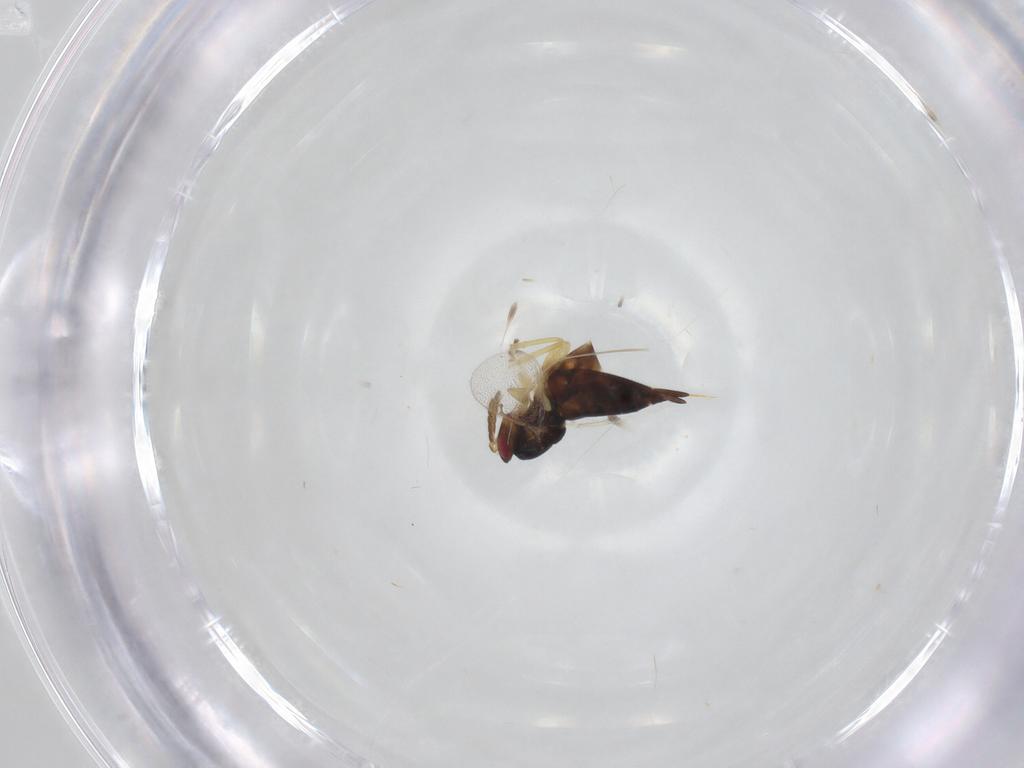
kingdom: Animalia
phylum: Arthropoda
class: Insecta
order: Hymenoptera
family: Eulophidae
